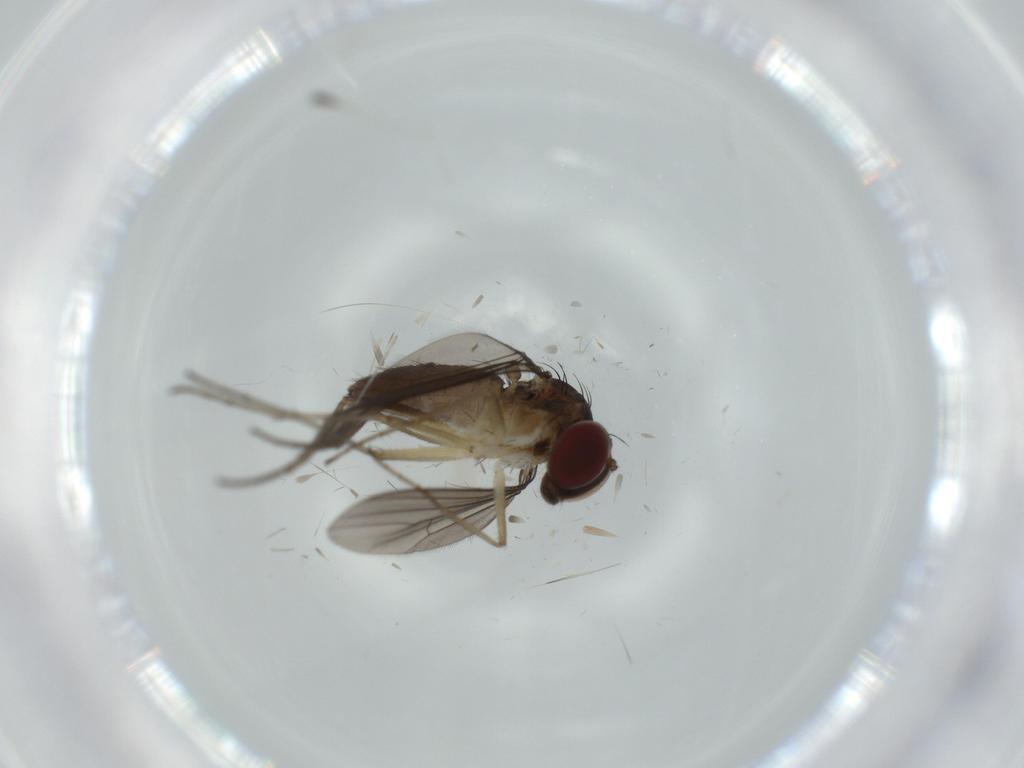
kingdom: Animalia
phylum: Arthropoda
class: Insecta
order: Diptera
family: Dolichopodidae
